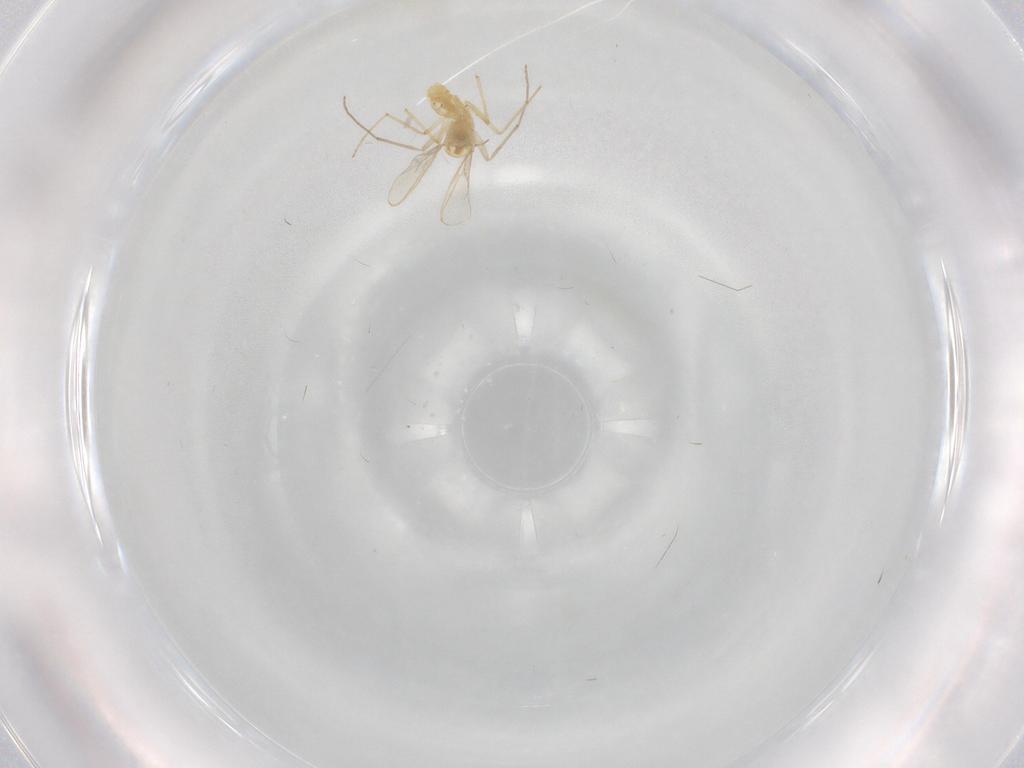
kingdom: Animalia
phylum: Arthropoda
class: Insecta
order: Diptera
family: Chironomidae
